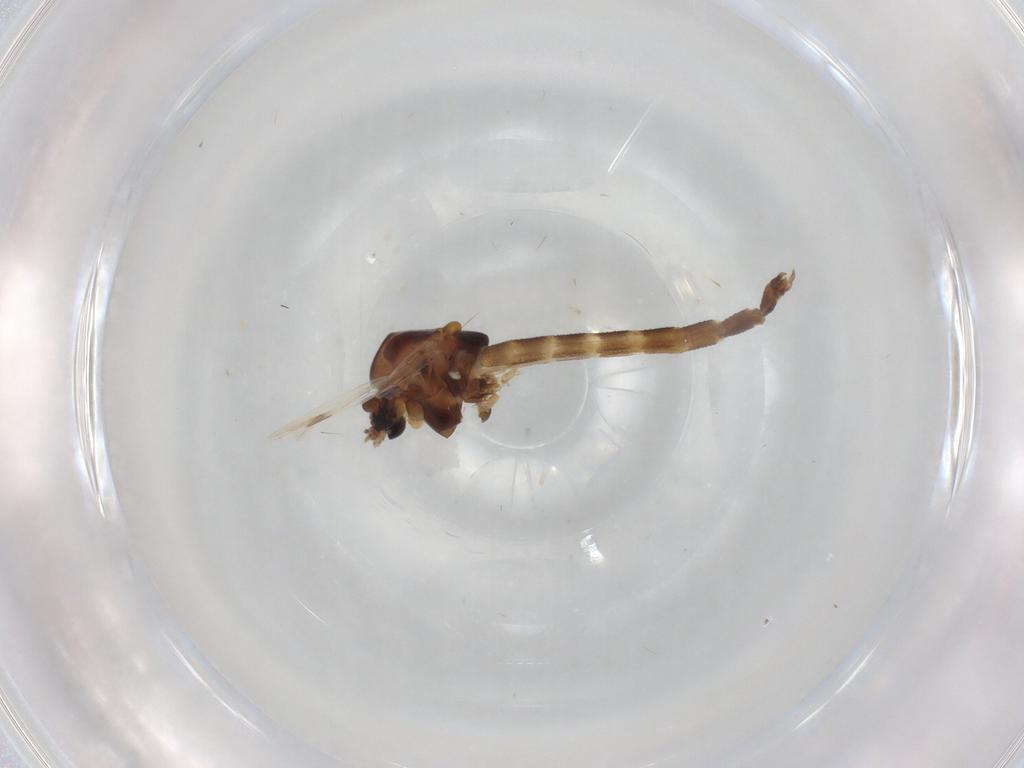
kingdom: Animalia
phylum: Arthropoda
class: Insecta
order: Diptera
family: Chironomidae
